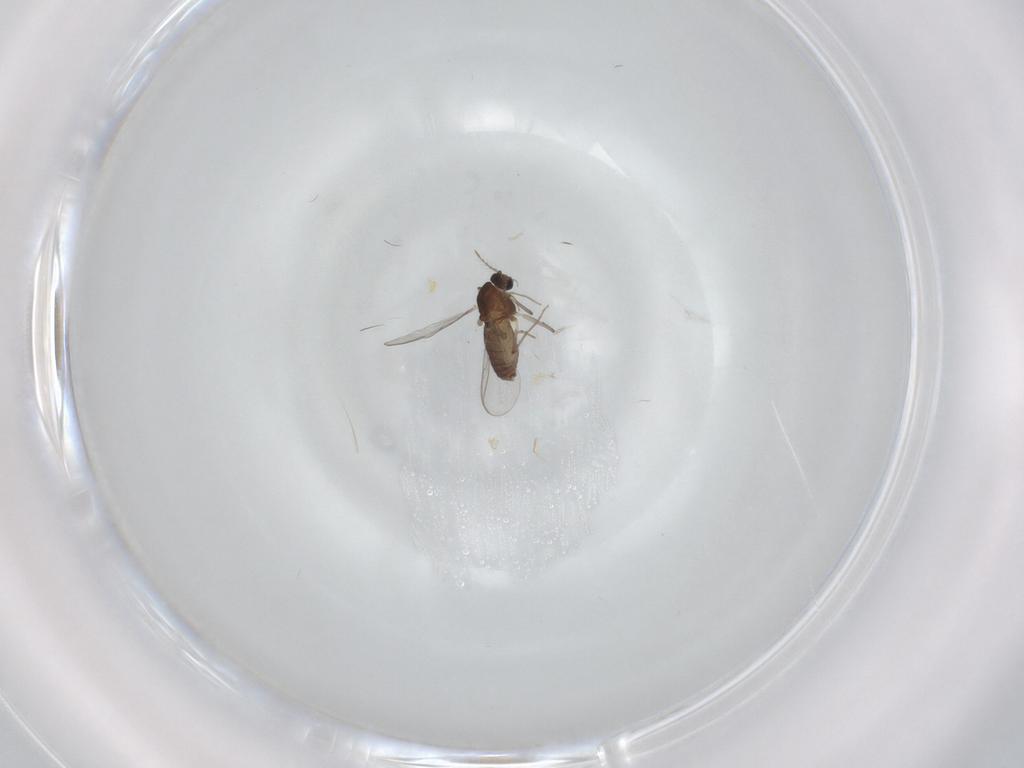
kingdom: Animalia
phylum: Arthropoda
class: Insecta
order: Diptera
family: Chironomidae
